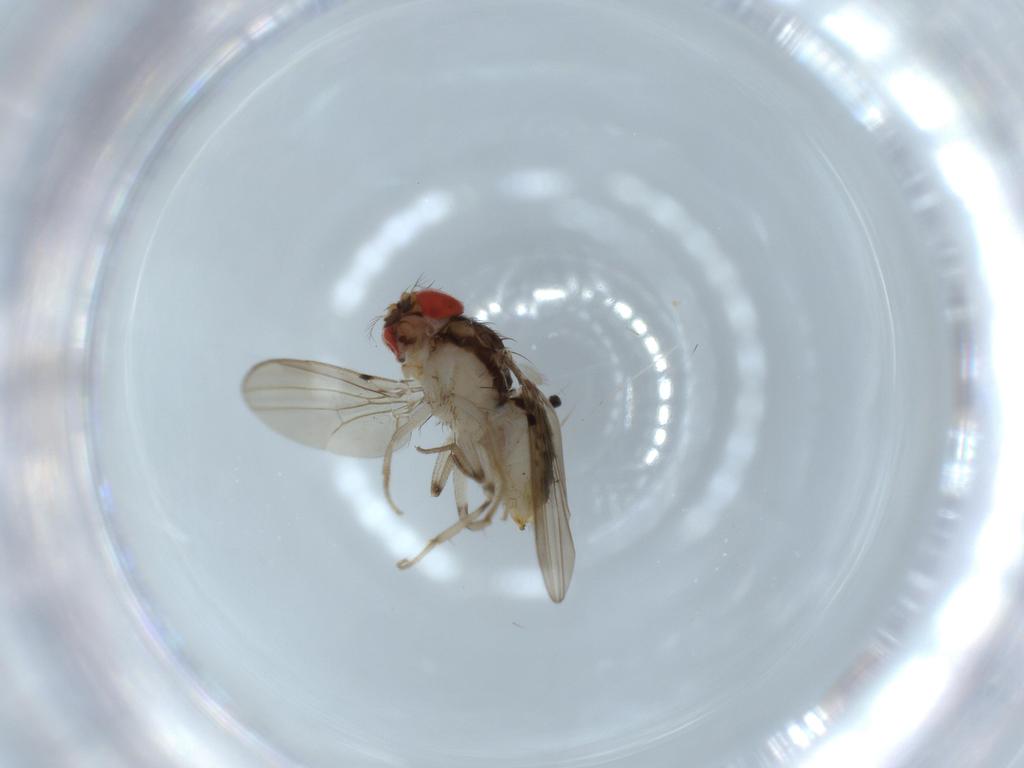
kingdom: Animalia
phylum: Arthropoda
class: Insecta
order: Diptera
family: Drosophilidae
